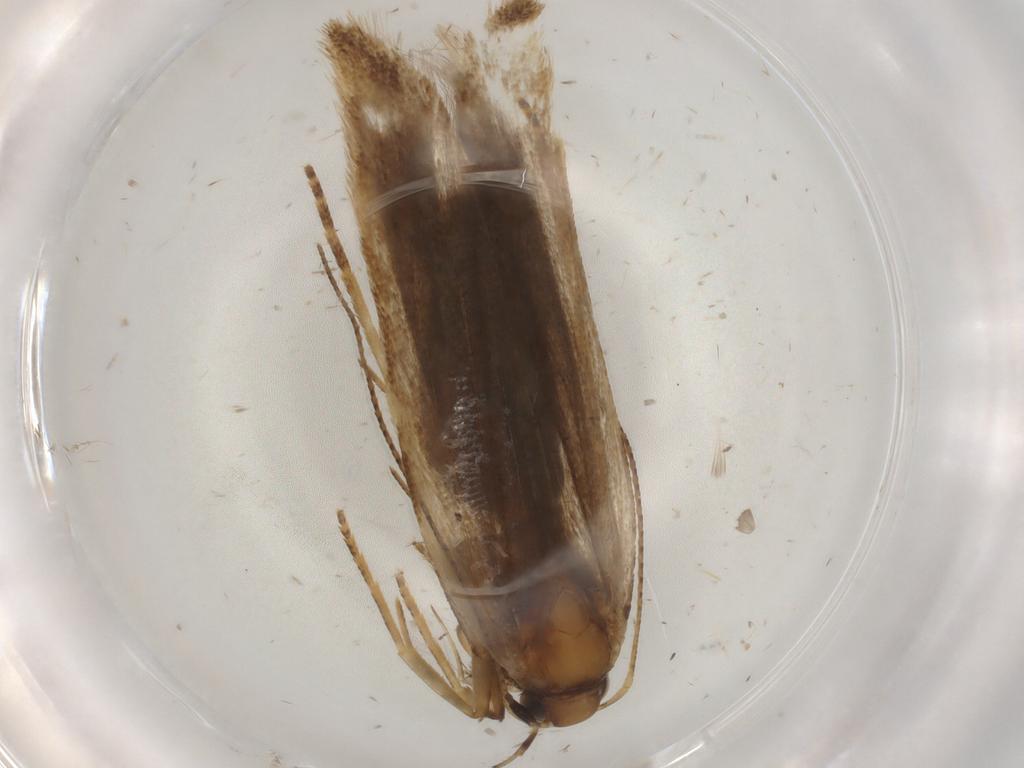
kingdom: Animalia
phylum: Arthropoda
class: Insecta
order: Lepidoptera
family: Gelechiidae
